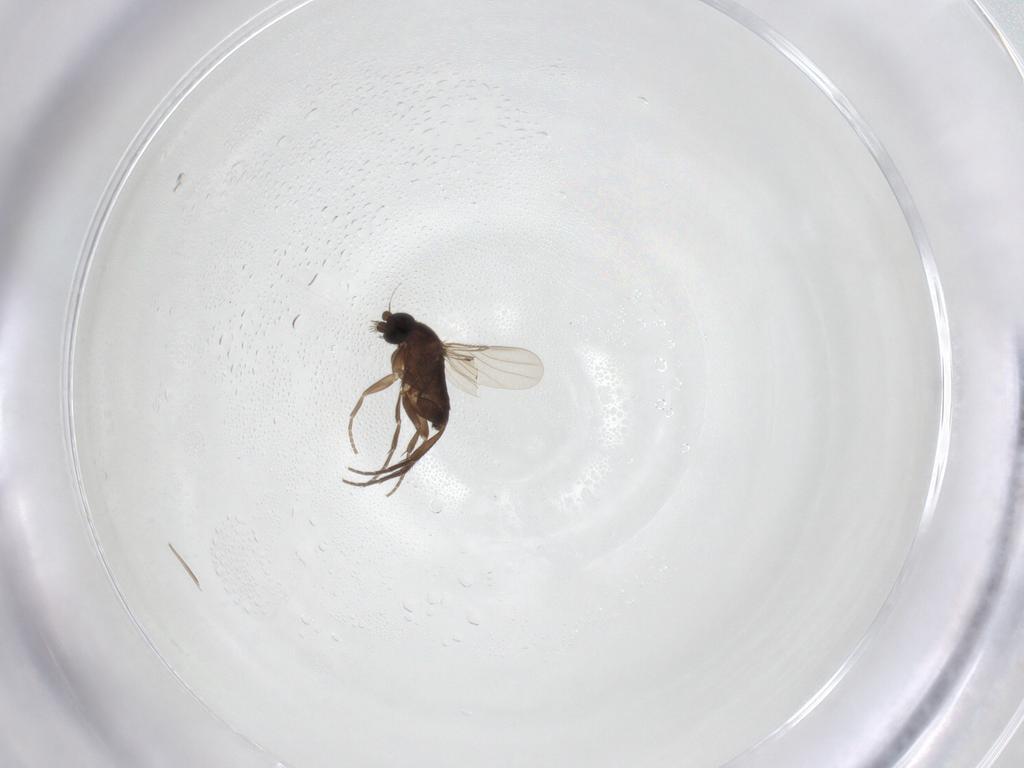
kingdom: Animalia
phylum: Arthropoda
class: Insecta
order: Diptera
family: Phoridae
